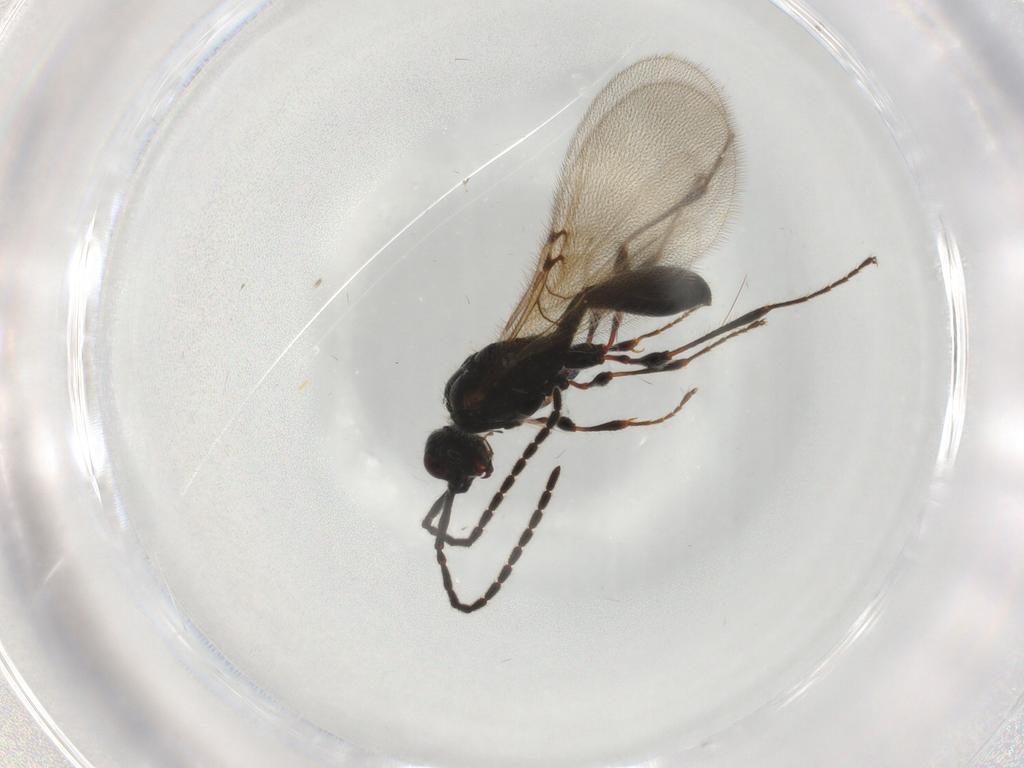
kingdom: Animalia
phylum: Arthropoda
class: Insecta
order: Hymenoptera
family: Diapriidae
